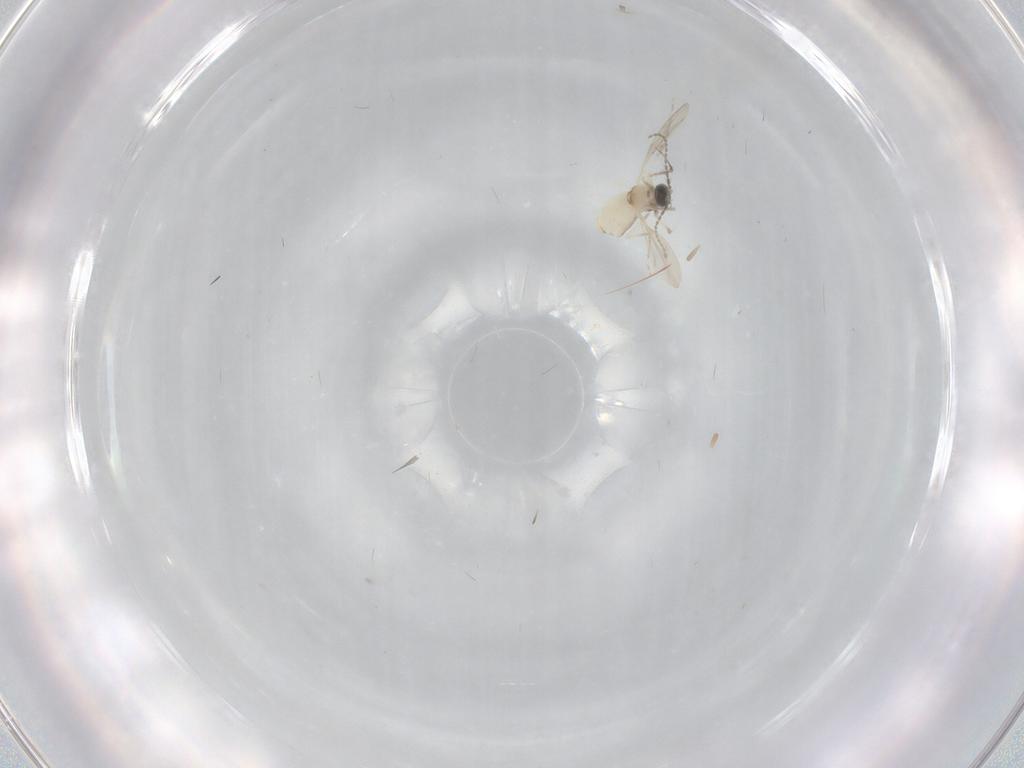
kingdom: Animalia
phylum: Arthropoda
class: Insecta
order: Diptera
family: Cecidomyiidae
